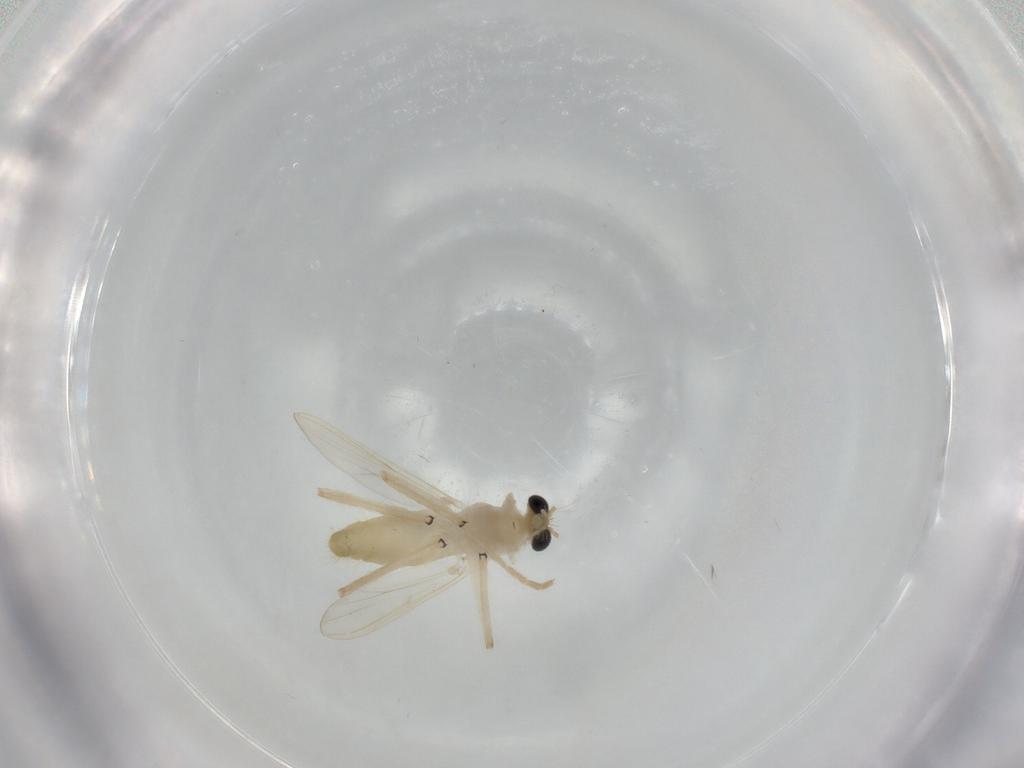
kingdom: Animalia
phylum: Arthropoda
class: Insecta
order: Diptera
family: Chironomidae
